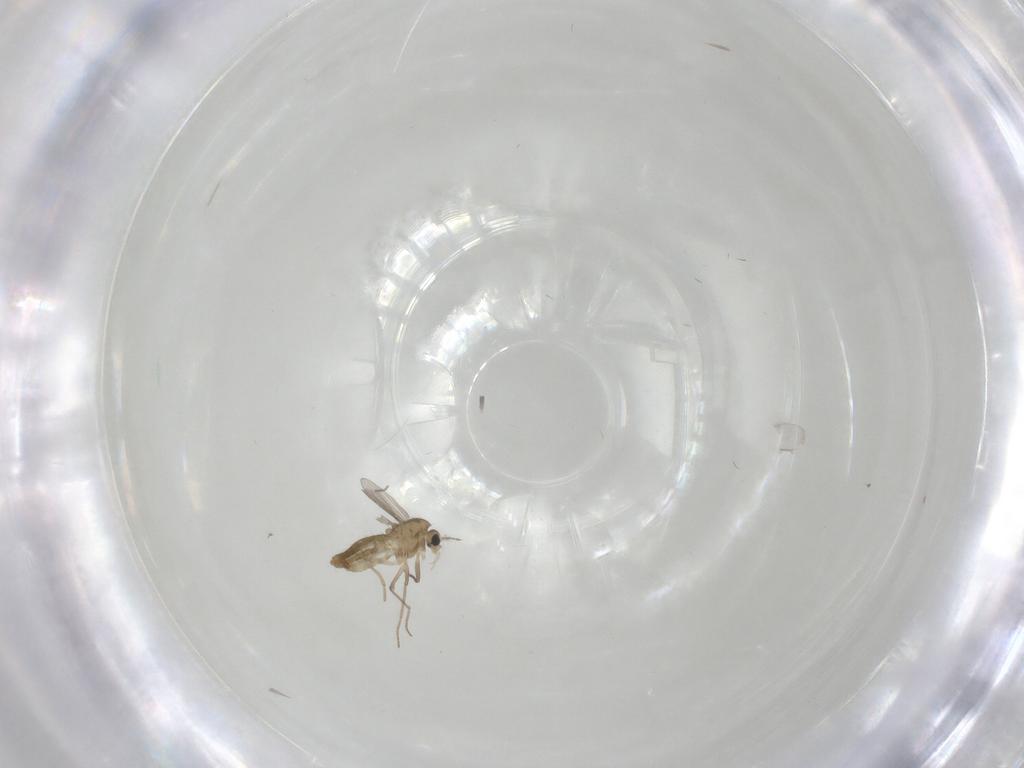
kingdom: Animalia
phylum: Arthropoda
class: Insecta
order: Diptera
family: Chironomidae
